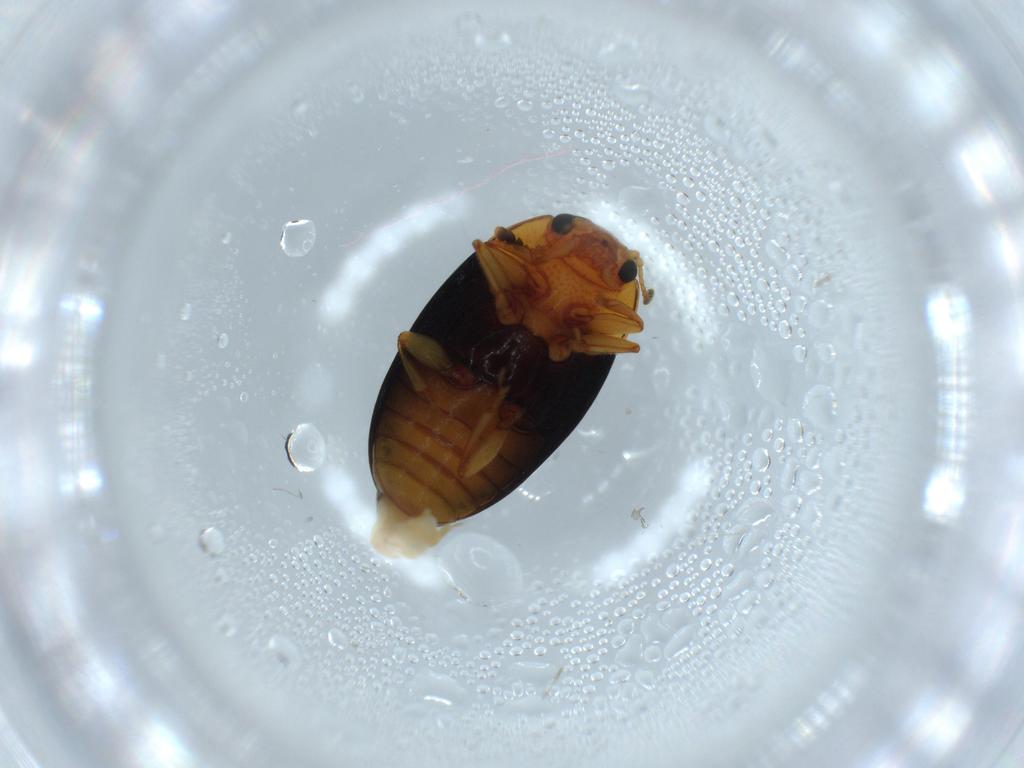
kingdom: Animalia
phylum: Arthropoda
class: Insecta
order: Coleoptera
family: Erotylidae
